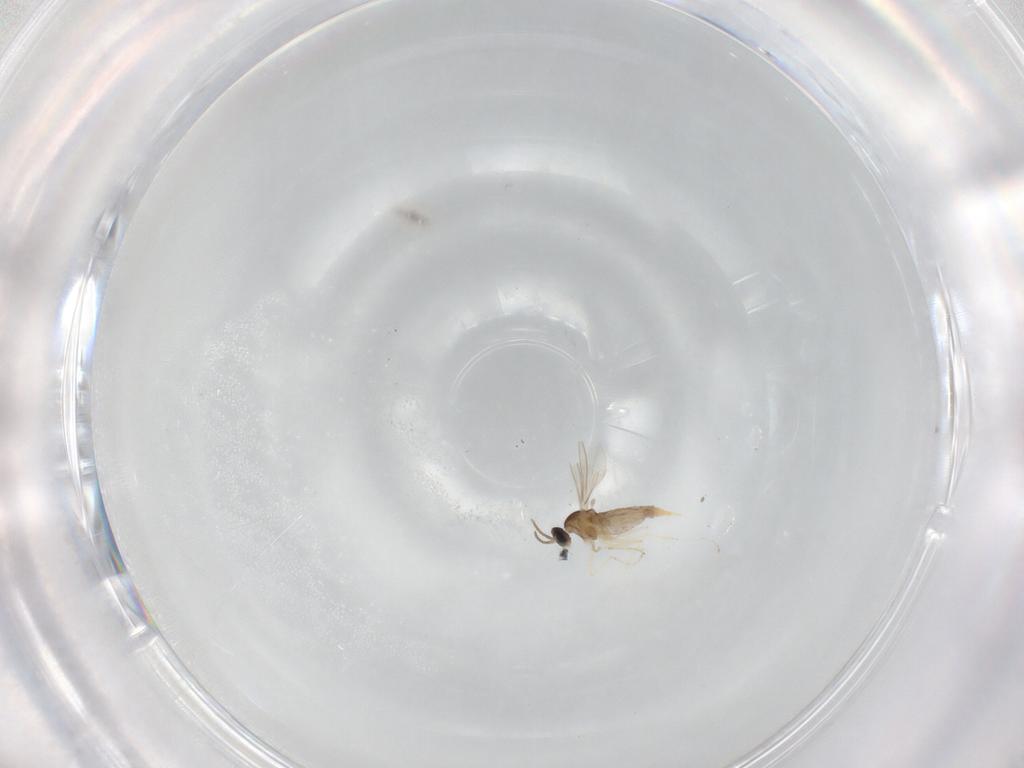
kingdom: Animalia
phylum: Arthropoda
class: Insecta
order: Diptera
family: Phoridae
